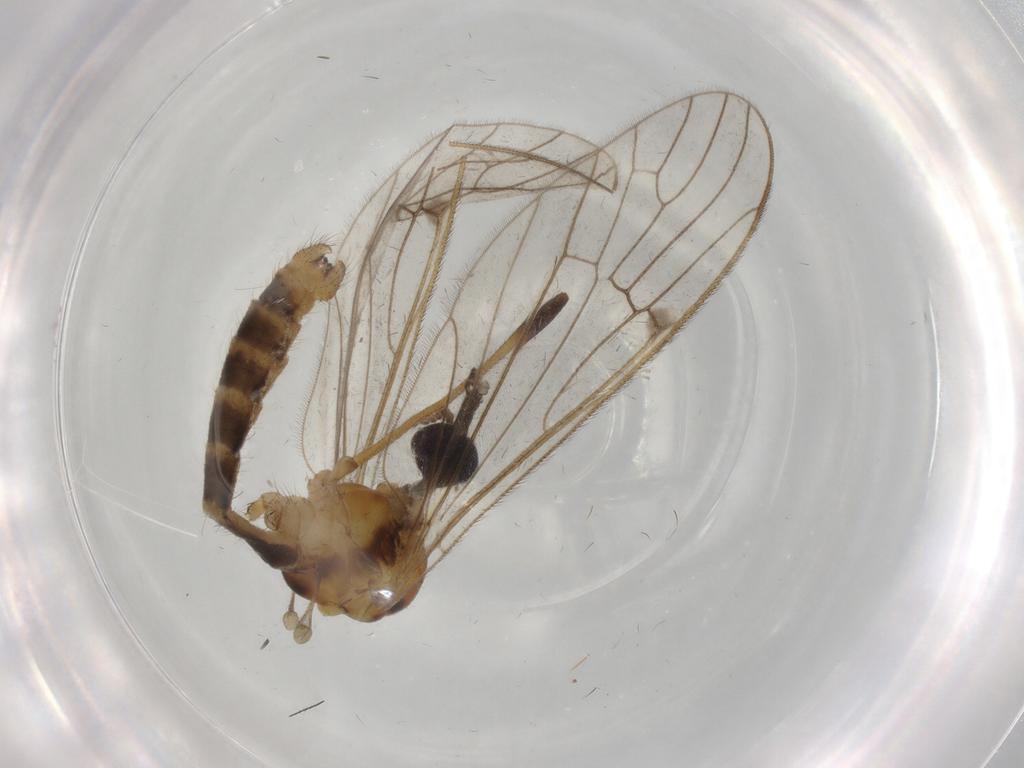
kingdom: Animalia
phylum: Arthropoda
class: Insecta
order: Diptera
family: Cecidomyiidae
